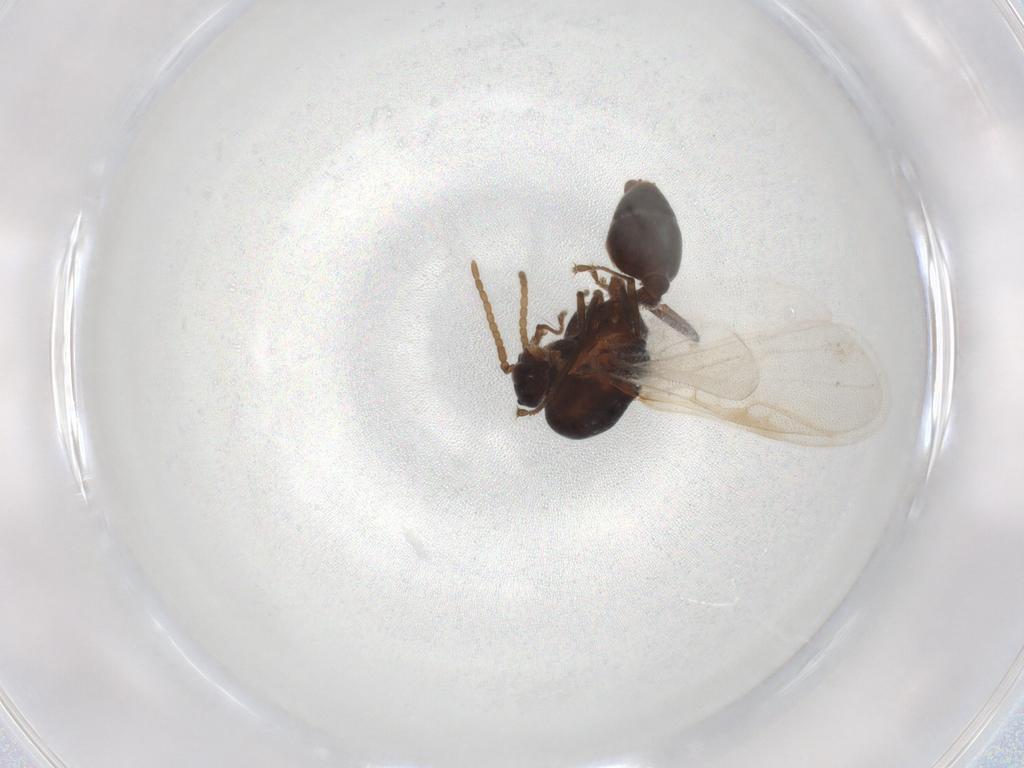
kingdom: Animalia
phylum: Arthropoda
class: Insecta
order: Hymenoptera
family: Formicidae
